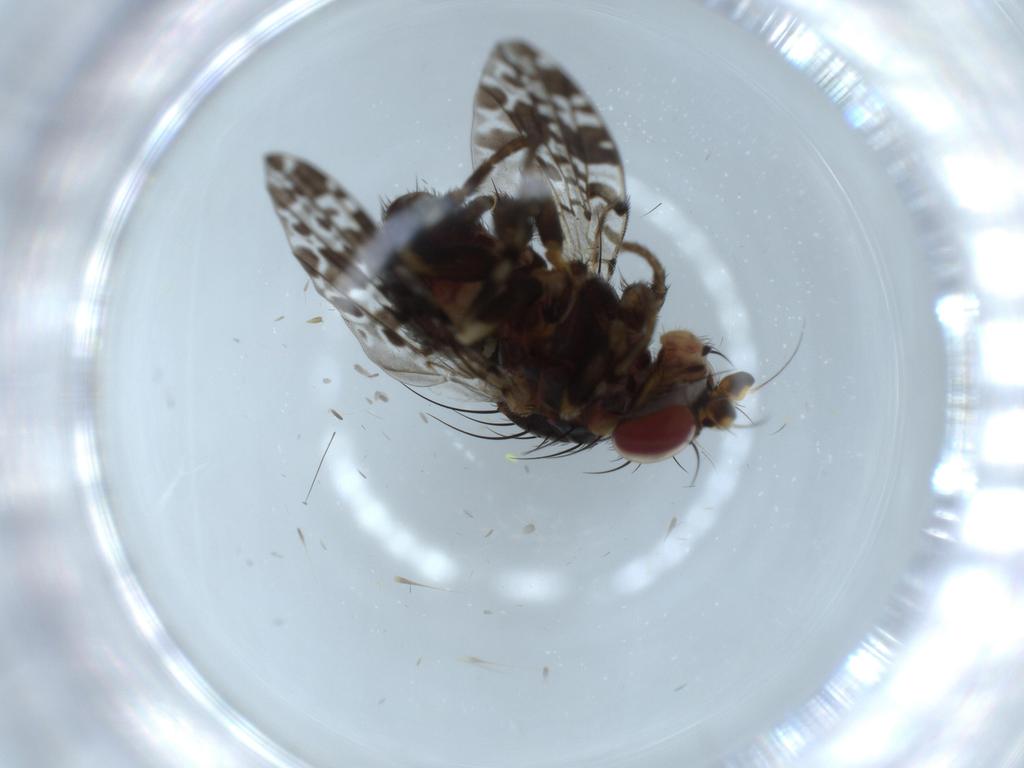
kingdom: Animalia
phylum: Arthropoda
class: Insecta
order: Diptera
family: Odiniidae
